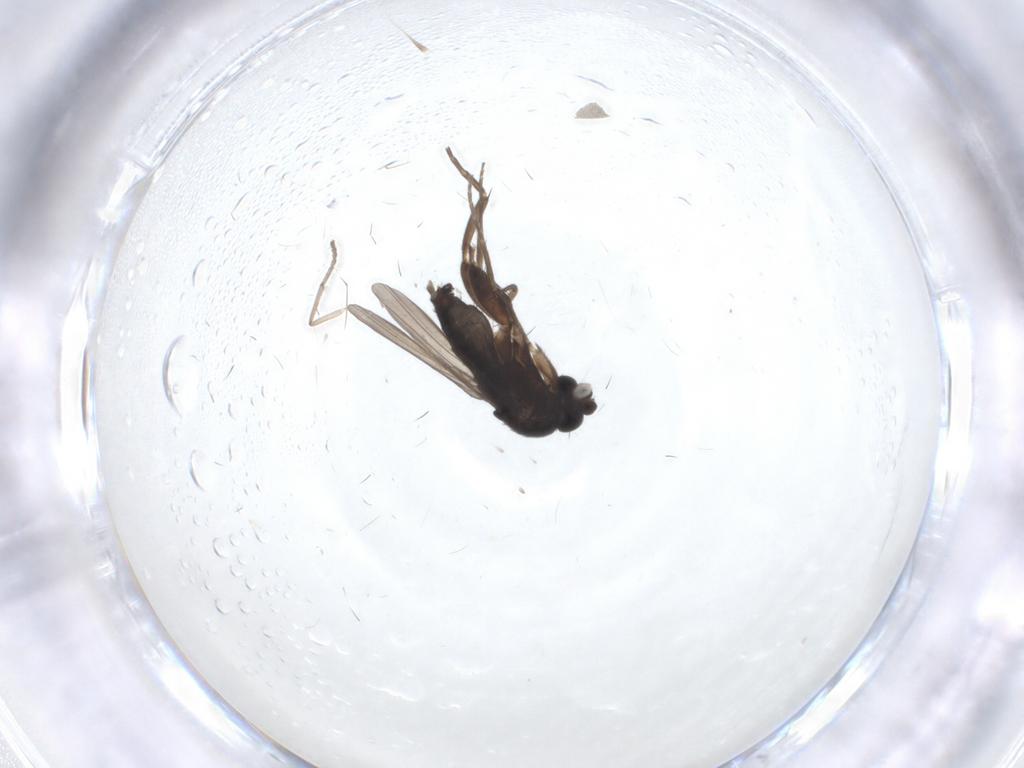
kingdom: Animalia
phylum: Arthropoda
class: Insecta
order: Diptera
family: Phoridae
